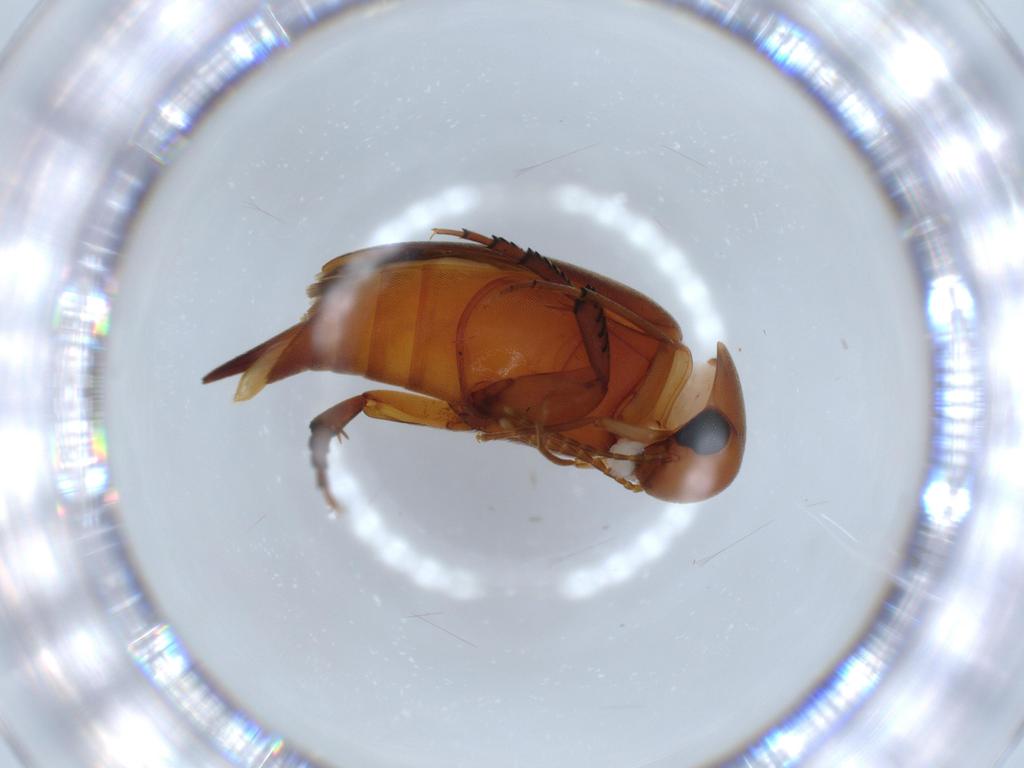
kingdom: Animalia
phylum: Arthropoda
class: Insecta
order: Coleoptera
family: Mordellidae
